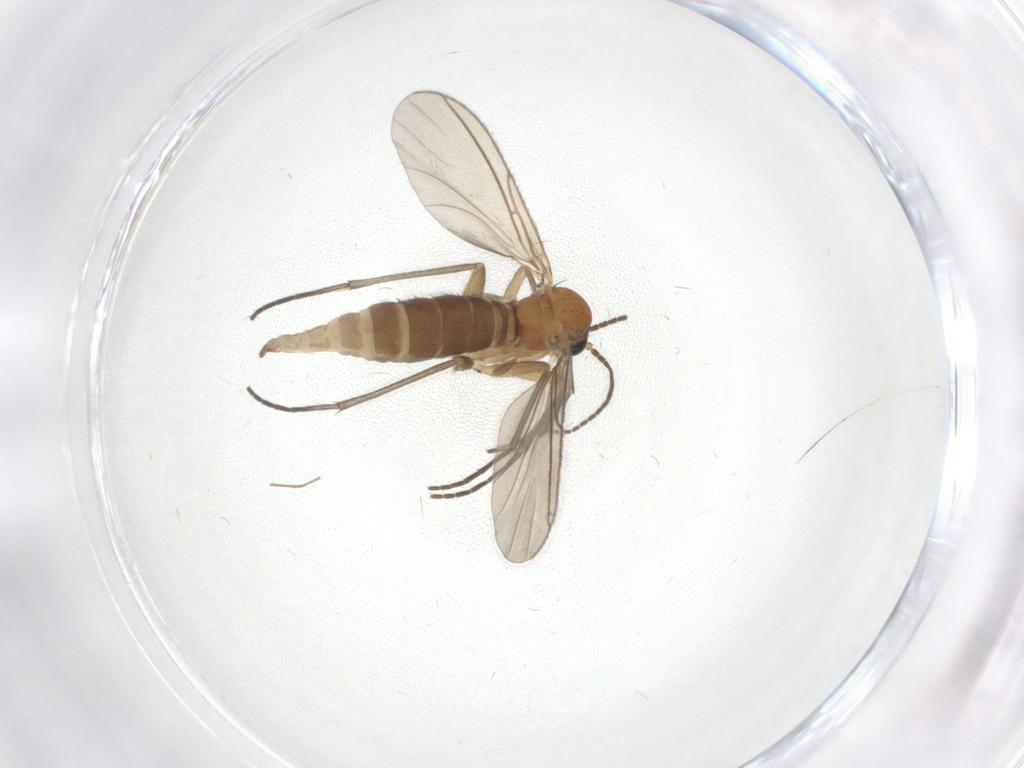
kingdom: Animalia
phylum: Arthropoda
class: Insecta
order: Diptera
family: Sciaridae
